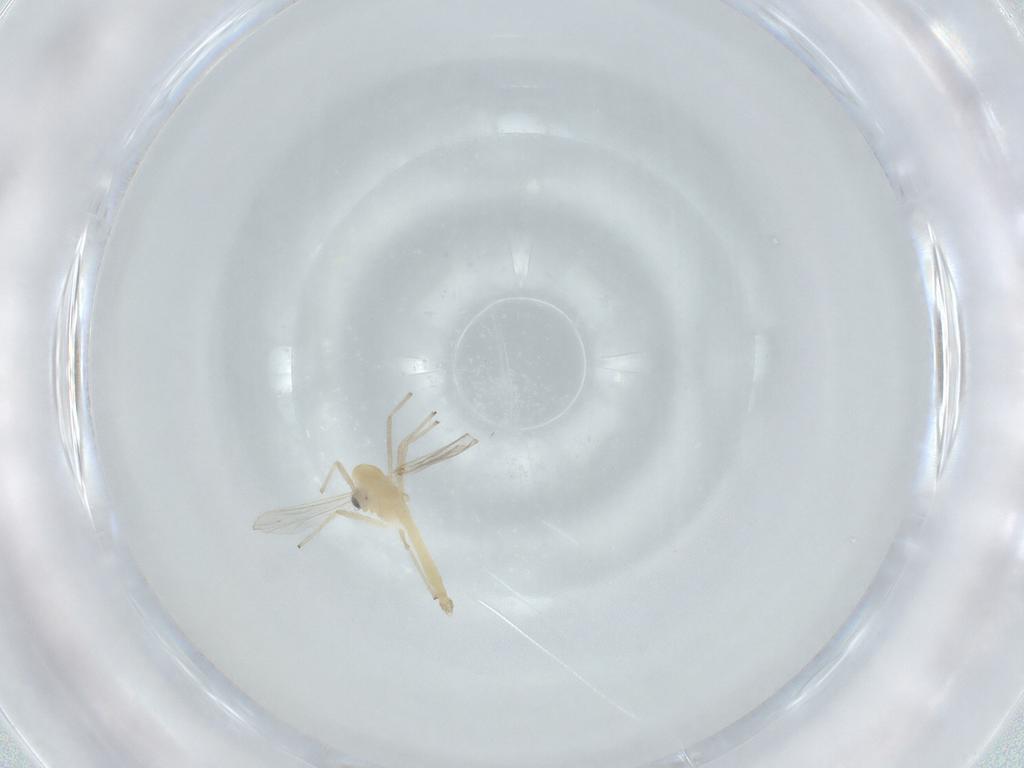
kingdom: Animalia
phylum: Arthropoda
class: Insecta
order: Diptera
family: Chironomidae
